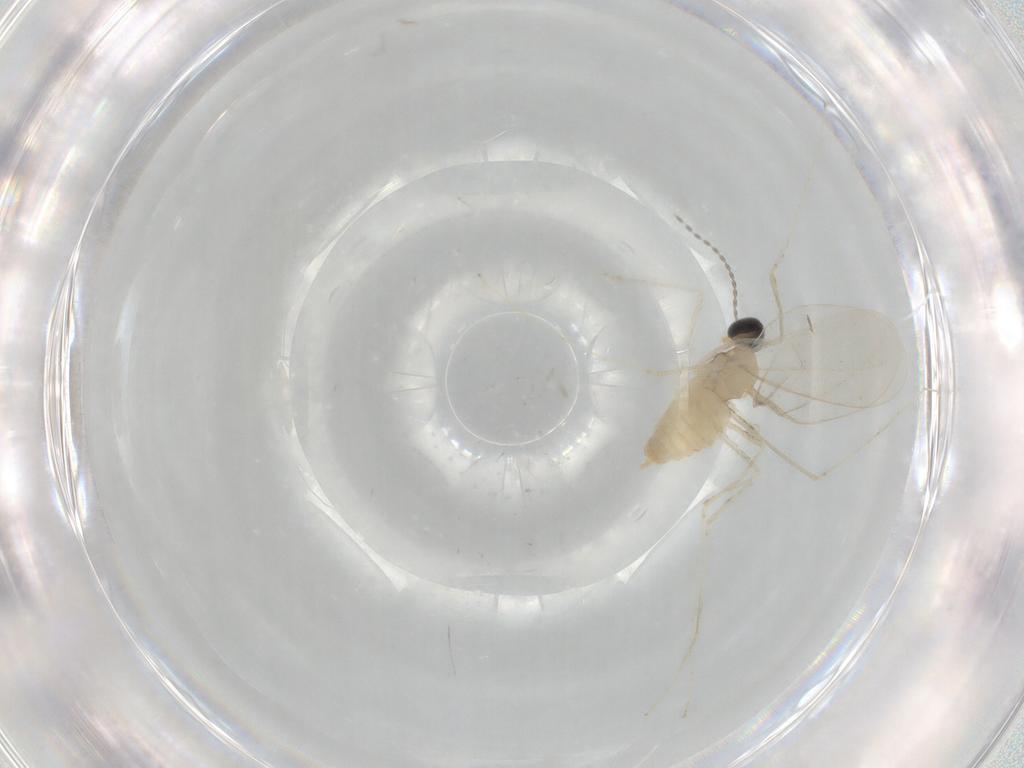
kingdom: Animalia
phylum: Arthropoda
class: Insecta
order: Diptera
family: Cecidomyiidae
